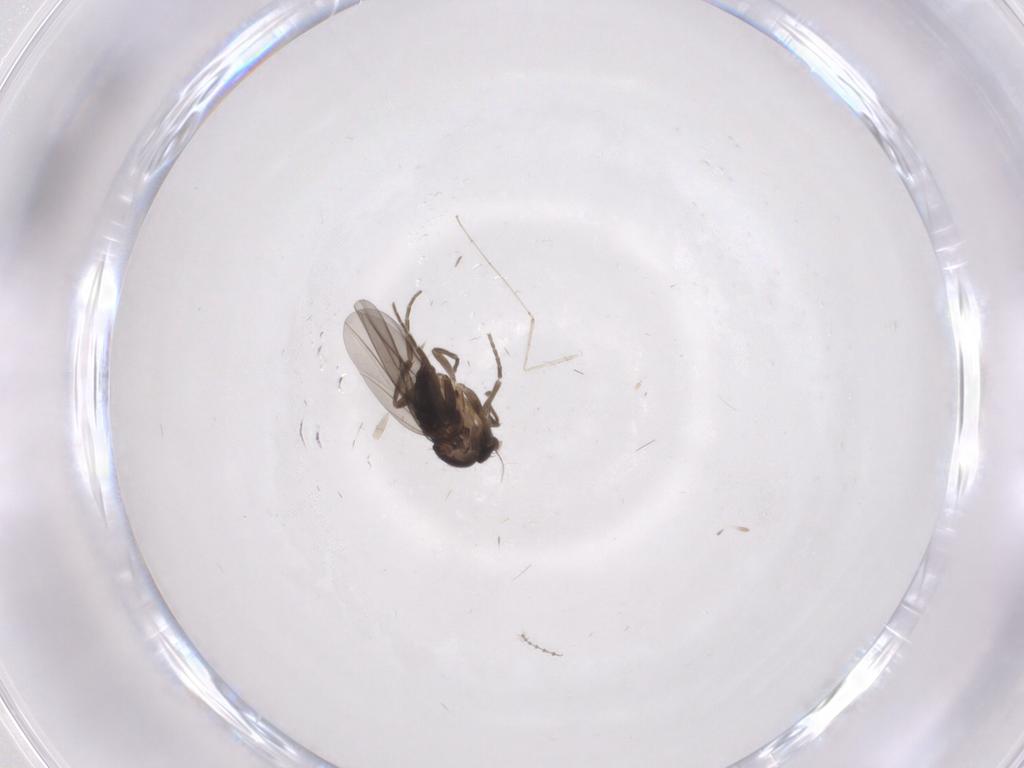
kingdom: Animalia
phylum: Arthropoda
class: Insecta
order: Diptera
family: Phoridae
